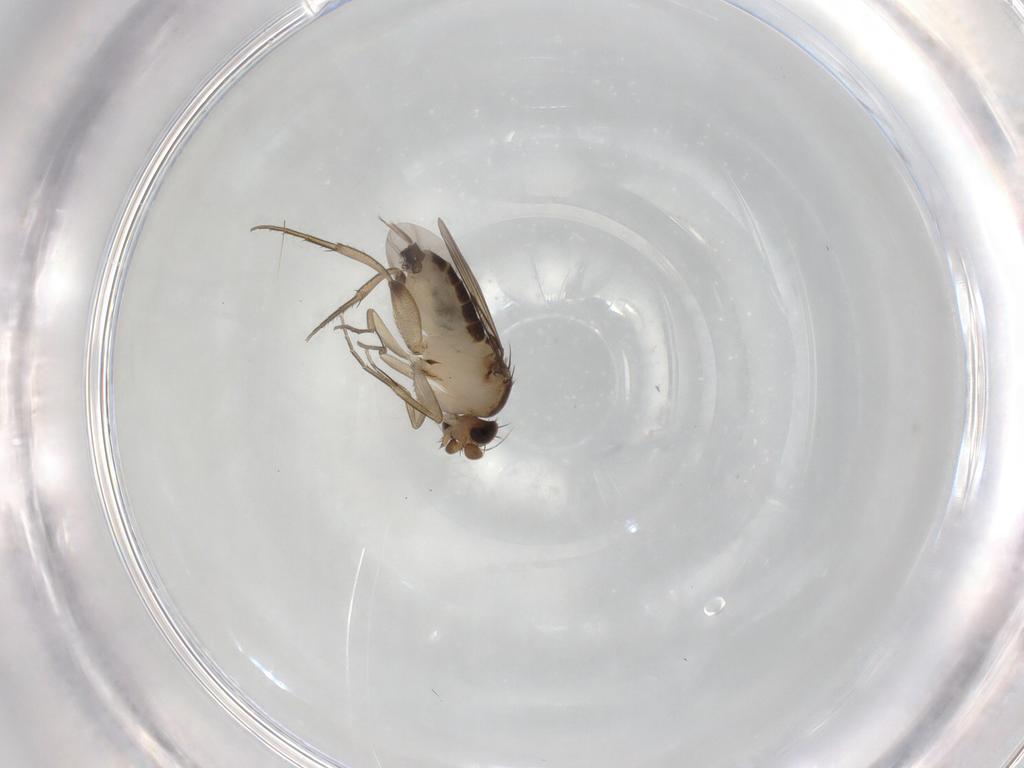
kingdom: Animalia
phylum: Arthropoda
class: Insecta
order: Diptera
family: Phoridae
